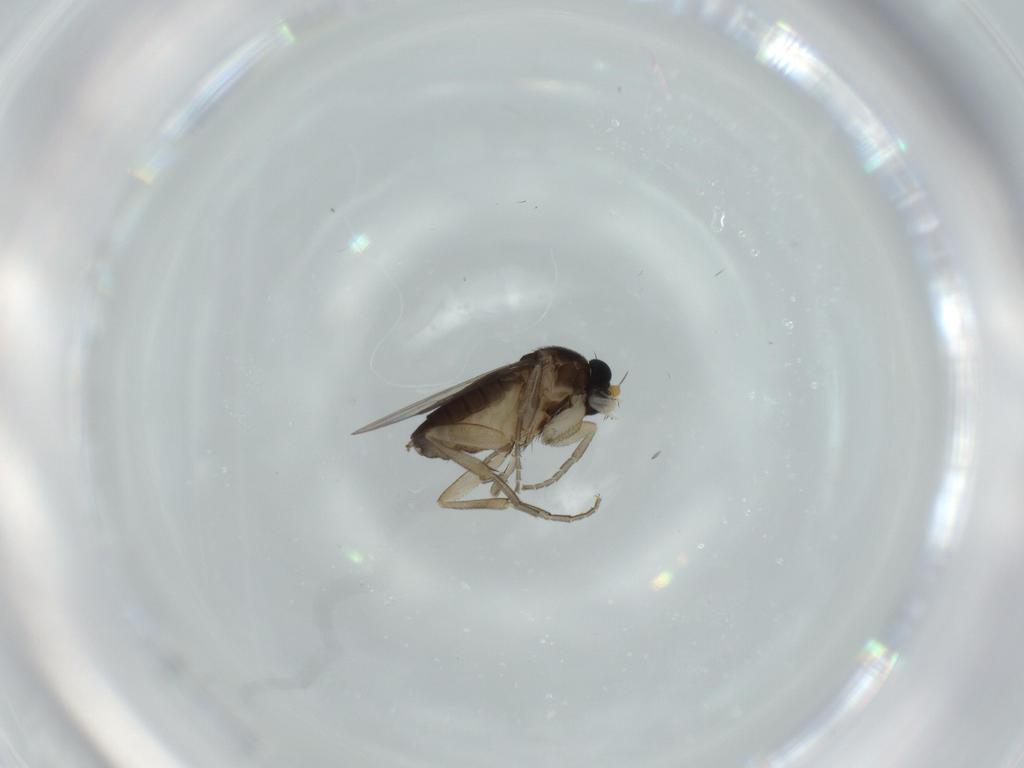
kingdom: Animalia
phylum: Arthropoda
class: Insecta
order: Diptera
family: Phoridae
